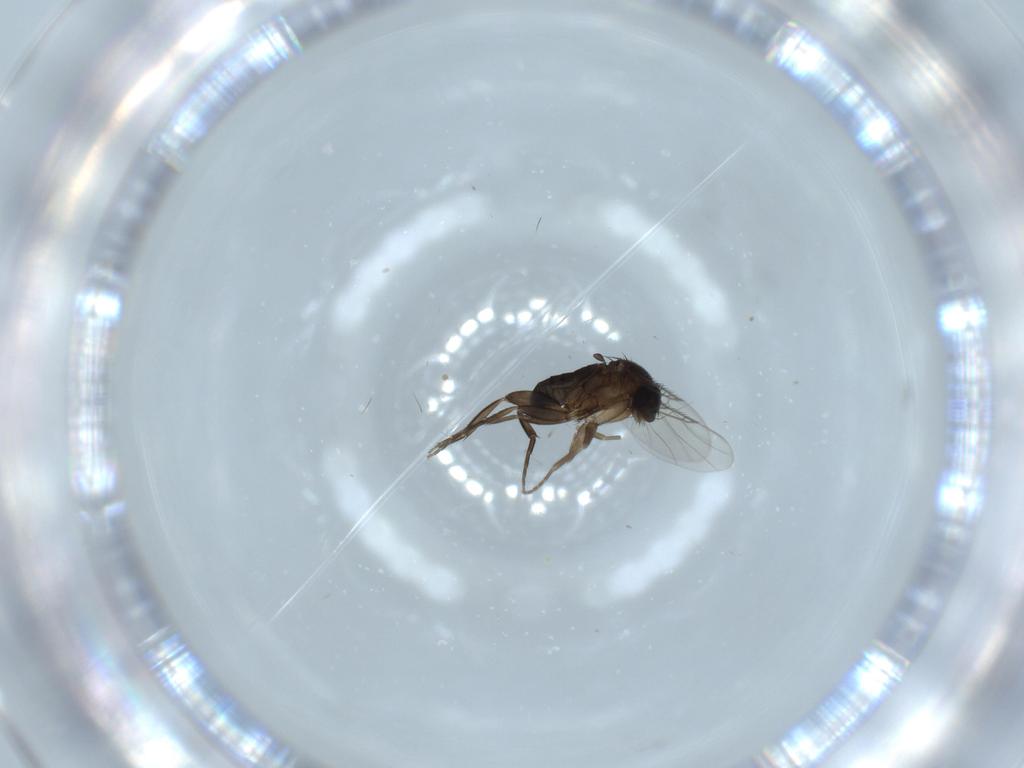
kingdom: Animalia
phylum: Arthropoda
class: Insecta
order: Diptera
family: Phoridae
